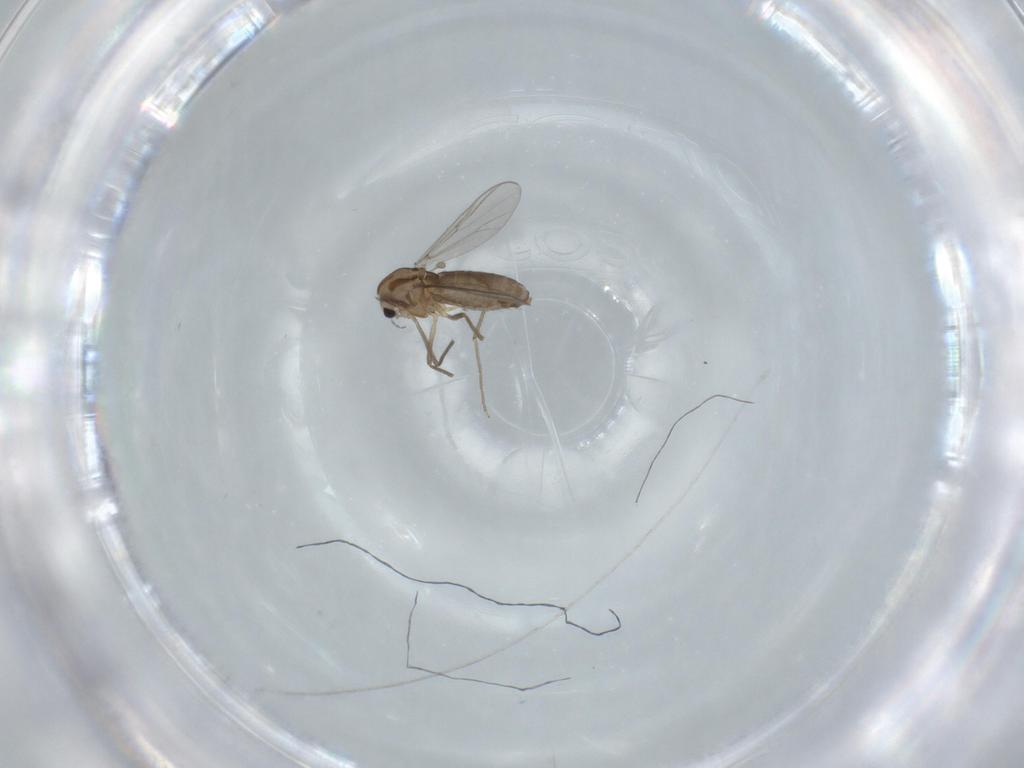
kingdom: Animalia
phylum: Arthropoda
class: Insecta
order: Diptera
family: Chironomidae
